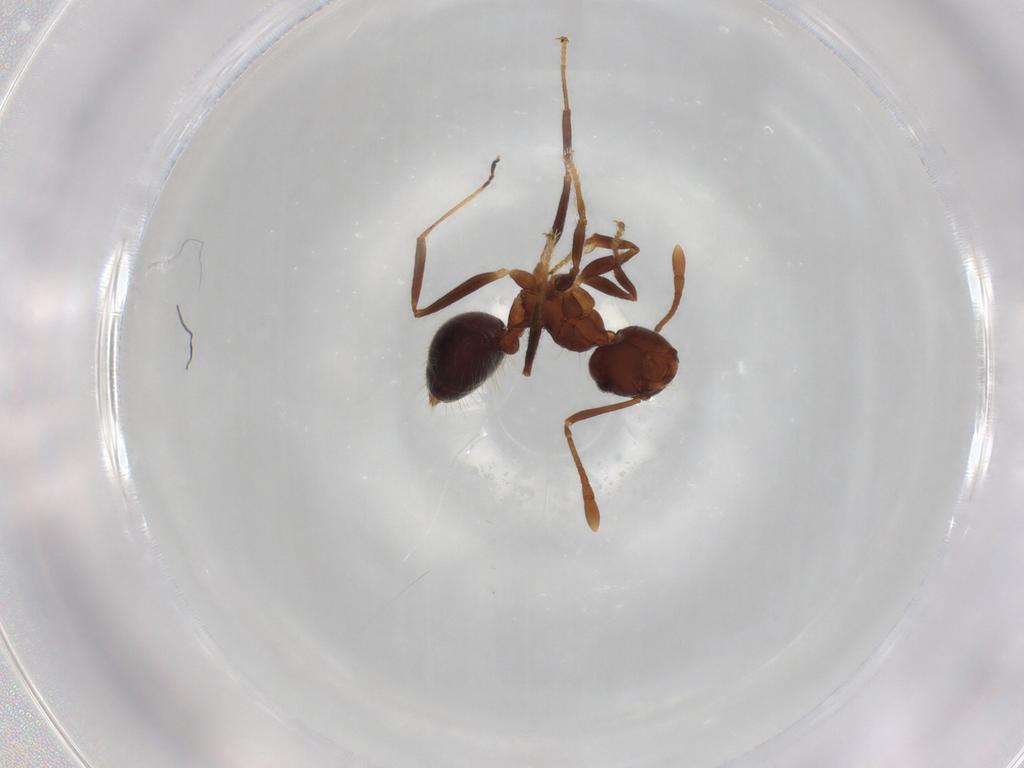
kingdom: Animalia
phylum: Arthropoda
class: Insecta
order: Hymenoptera
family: Formicidae
